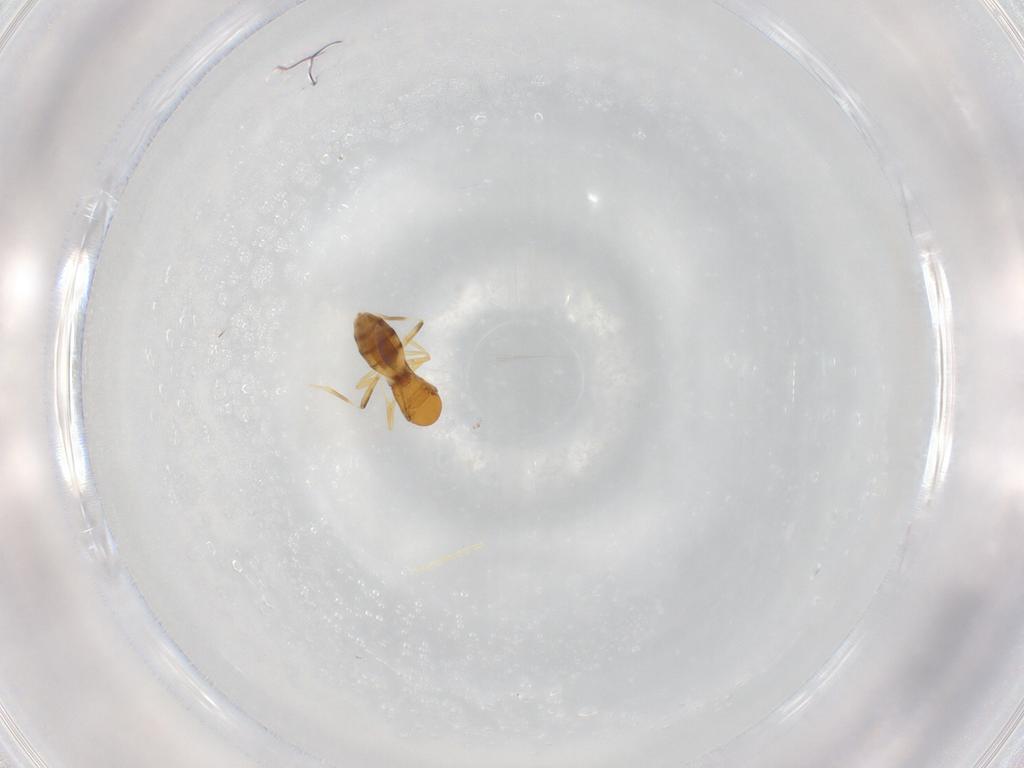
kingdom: Animalia
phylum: Arthropoda
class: Insecta
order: Hymenoptera
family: Scelionidae
